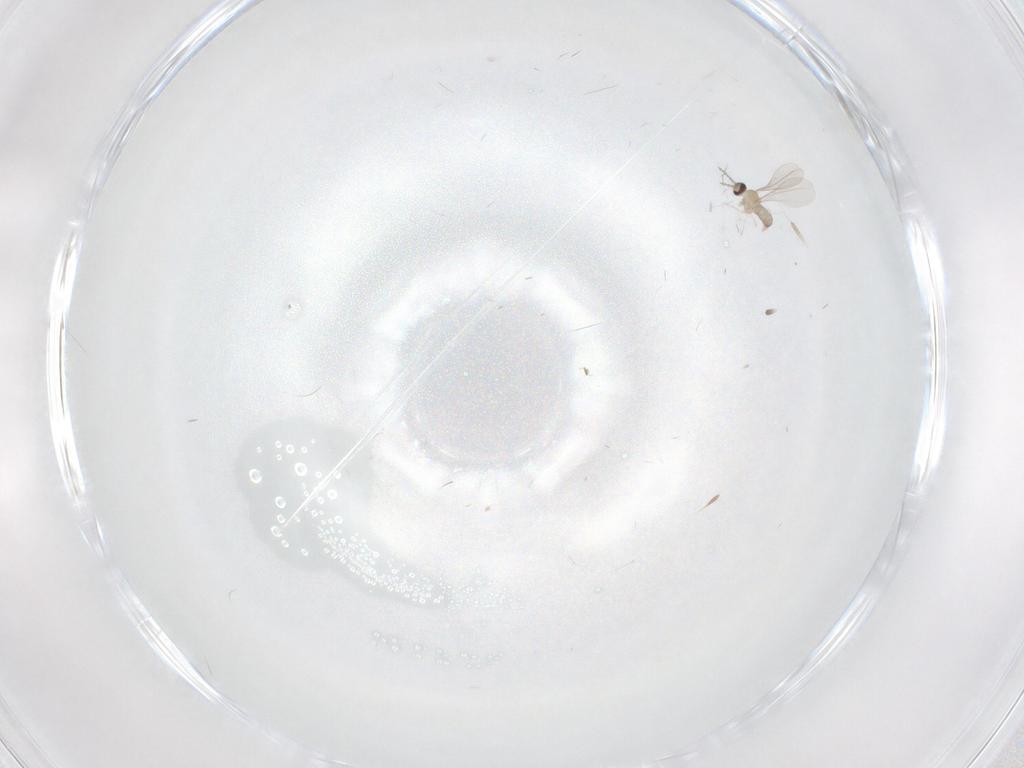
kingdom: Animalia
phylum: Arthropoda
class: Insecta
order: Diptera
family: Cecidomyiidae
